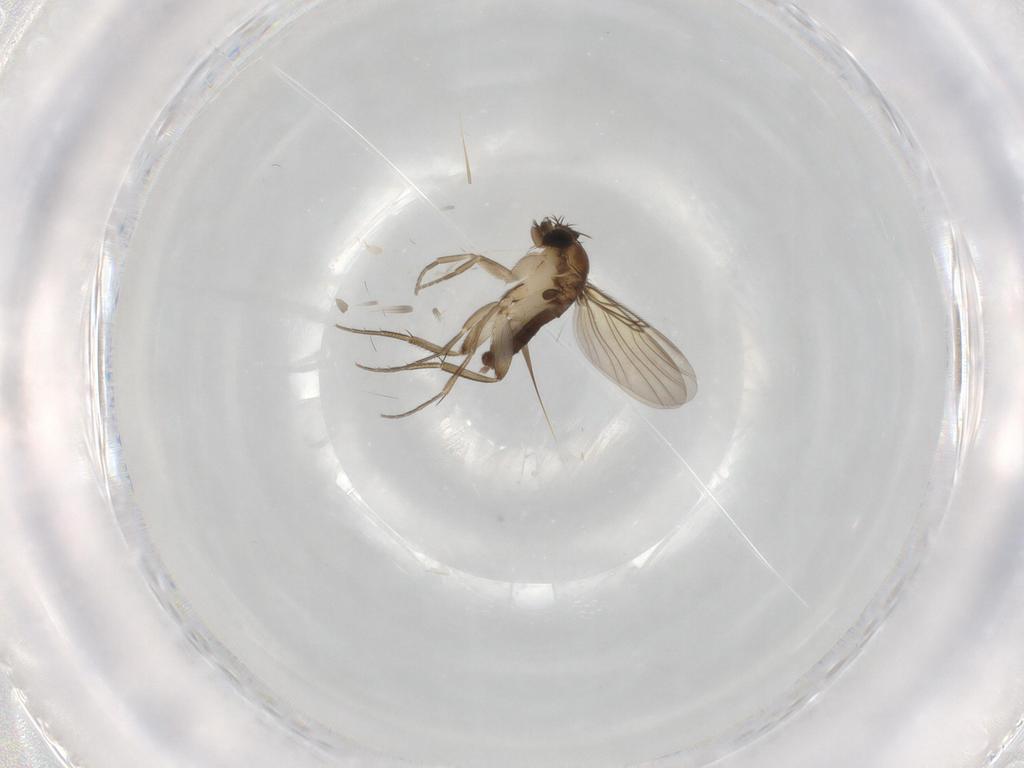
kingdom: Animalia
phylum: Arthropoda
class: Insecta
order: Diptera
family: Phoridae
